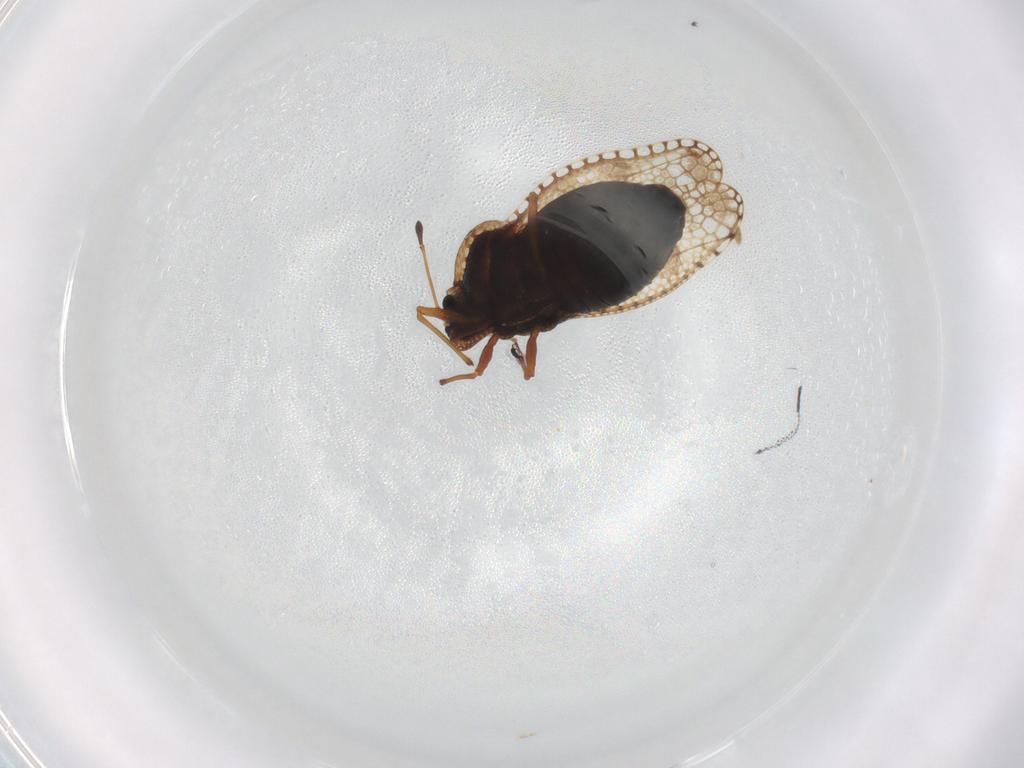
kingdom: Animalia
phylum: Arthropoda
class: Insecta
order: Hemiptera
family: Tingidae
